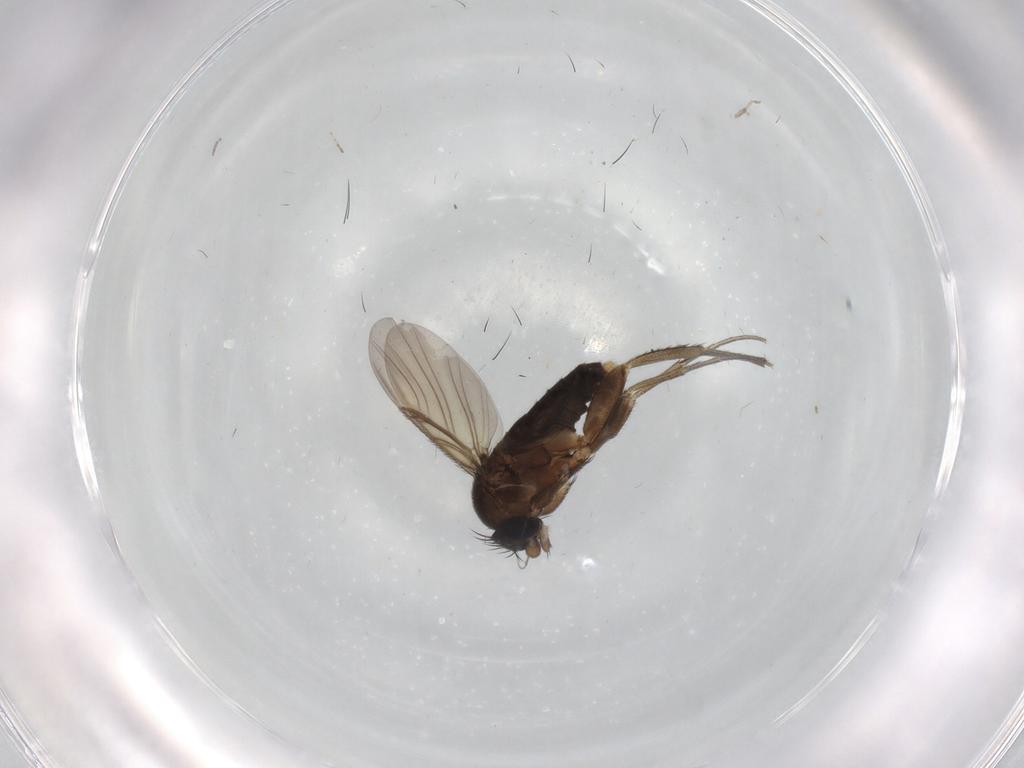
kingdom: Animalia
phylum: Arthropoda
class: Insecta
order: Diptera
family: Phoridae
